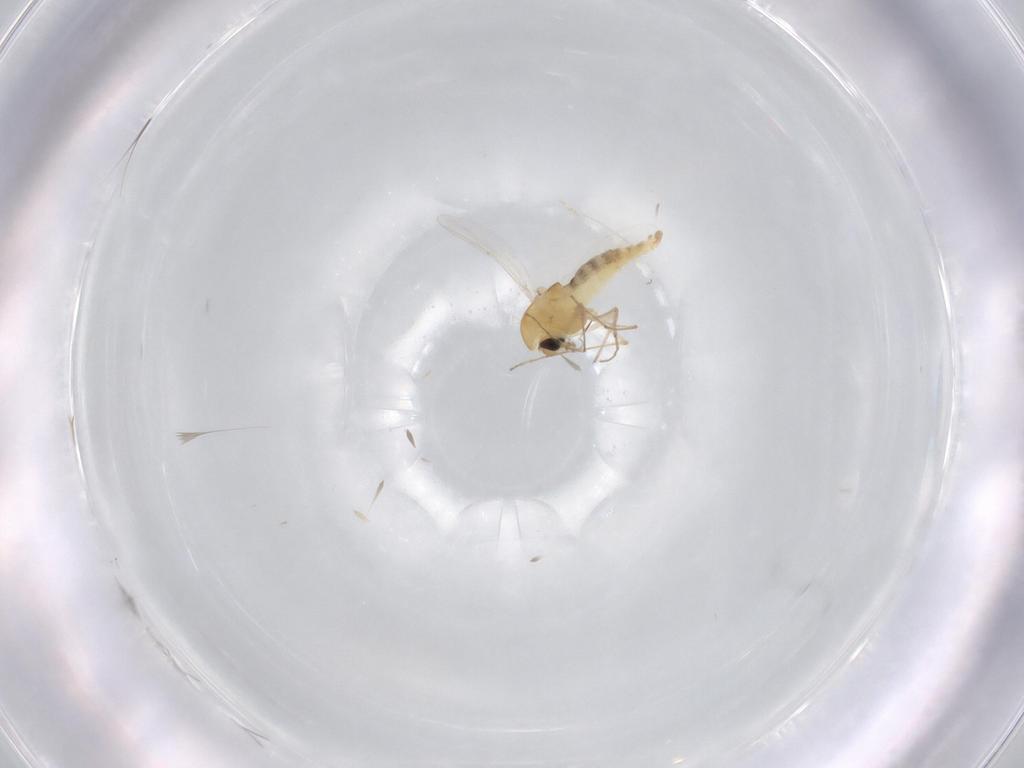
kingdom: Animalia
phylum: Arthropoda
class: Insecta
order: Diptera
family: Chironomidae
